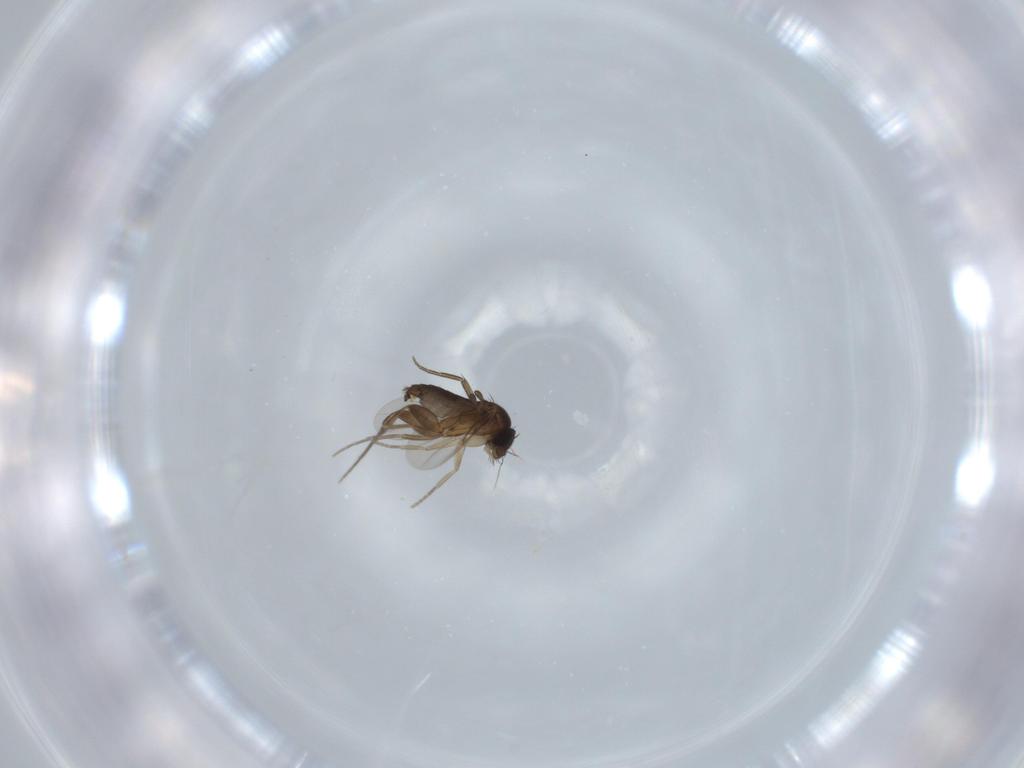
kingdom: Animalia
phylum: Arthropoda
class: Insecta
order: Diptera
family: Phoridae
